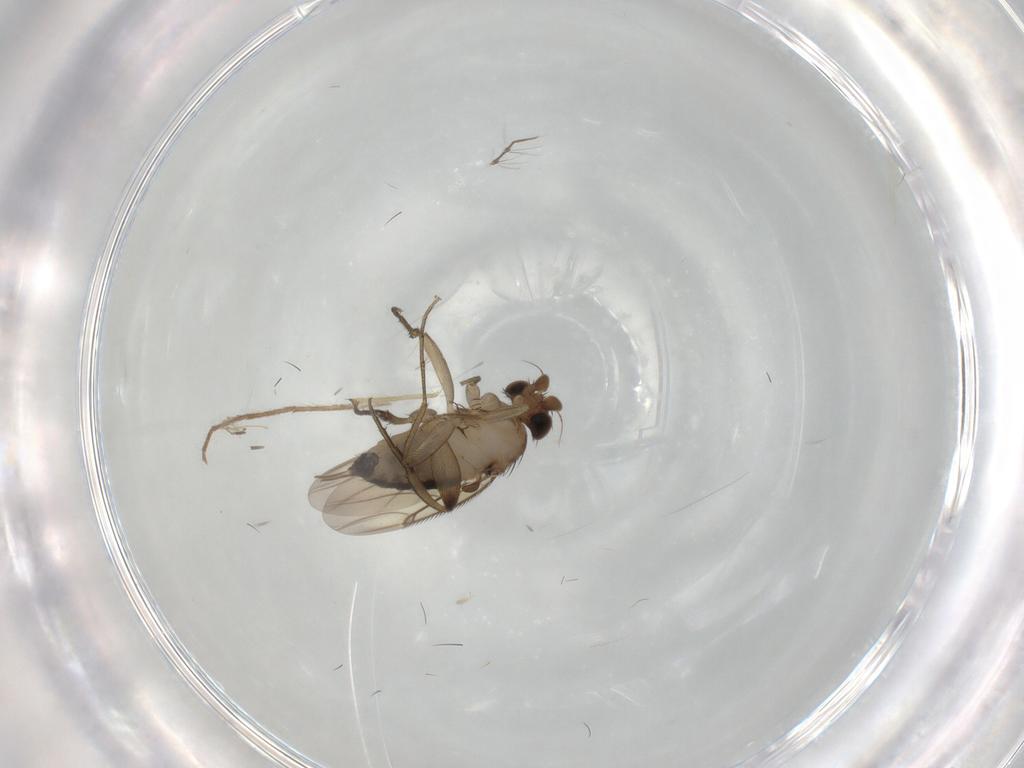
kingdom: Animalia
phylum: Arthropoda
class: Insecta
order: Diptera
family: Phoridae
